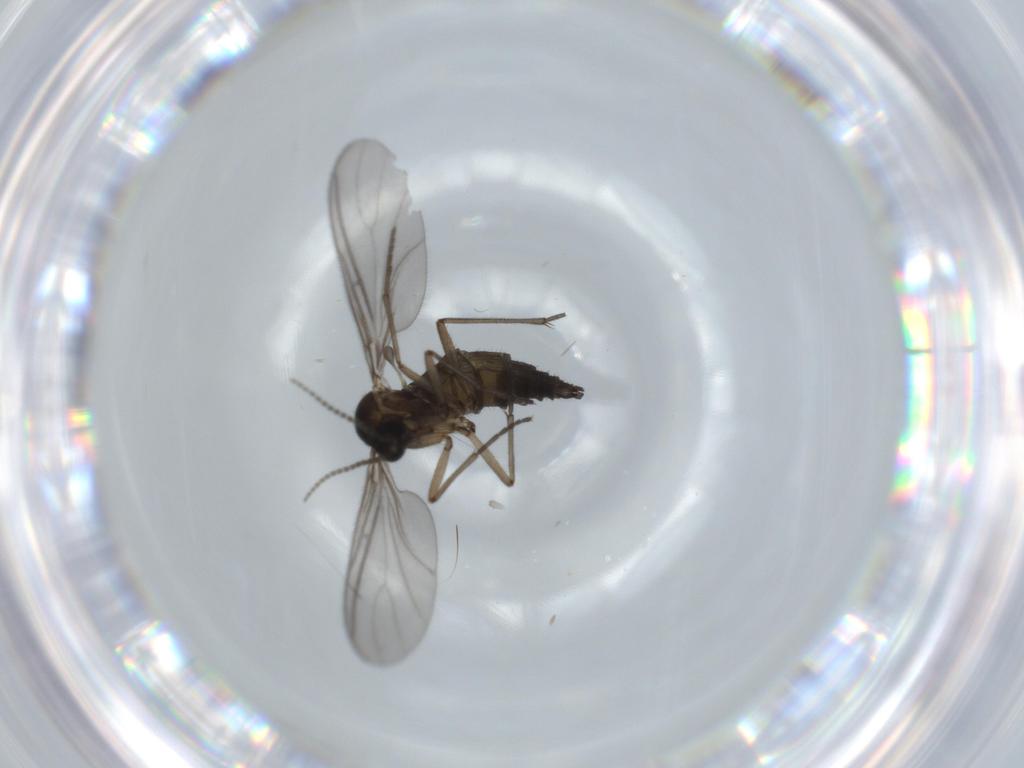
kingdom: Animalia
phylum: Arthropoda
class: Insecta
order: Diptera
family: Sciaridae
